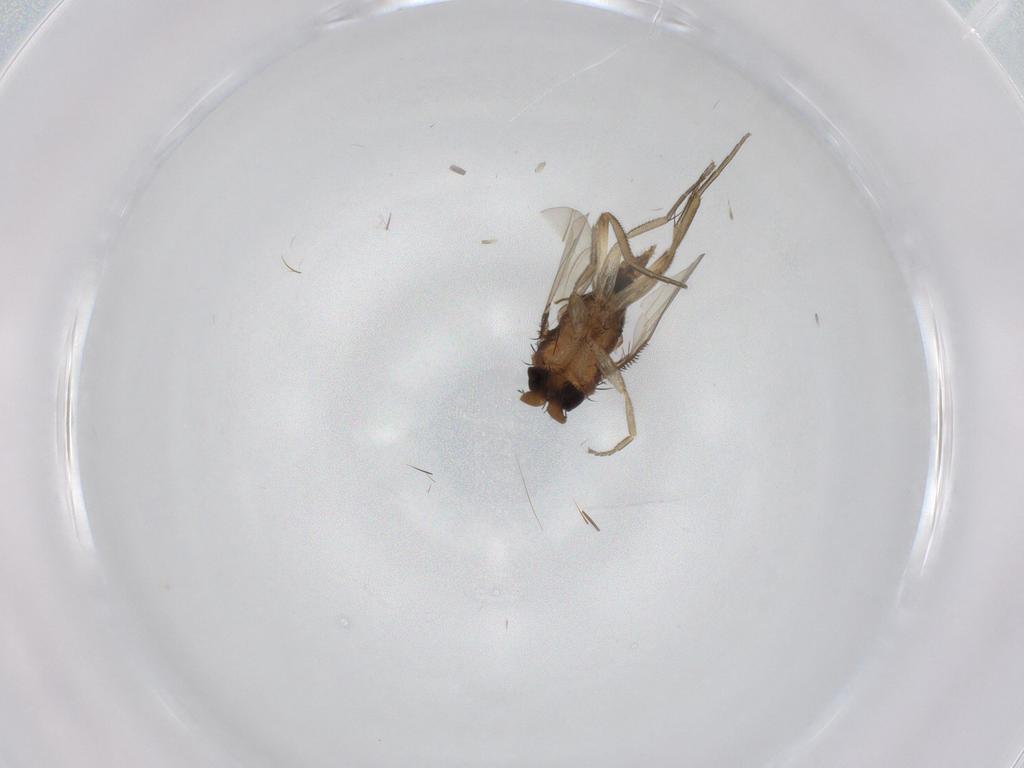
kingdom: Animalia
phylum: Arthropoda
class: Insecta
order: Diptera
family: Phoridae
